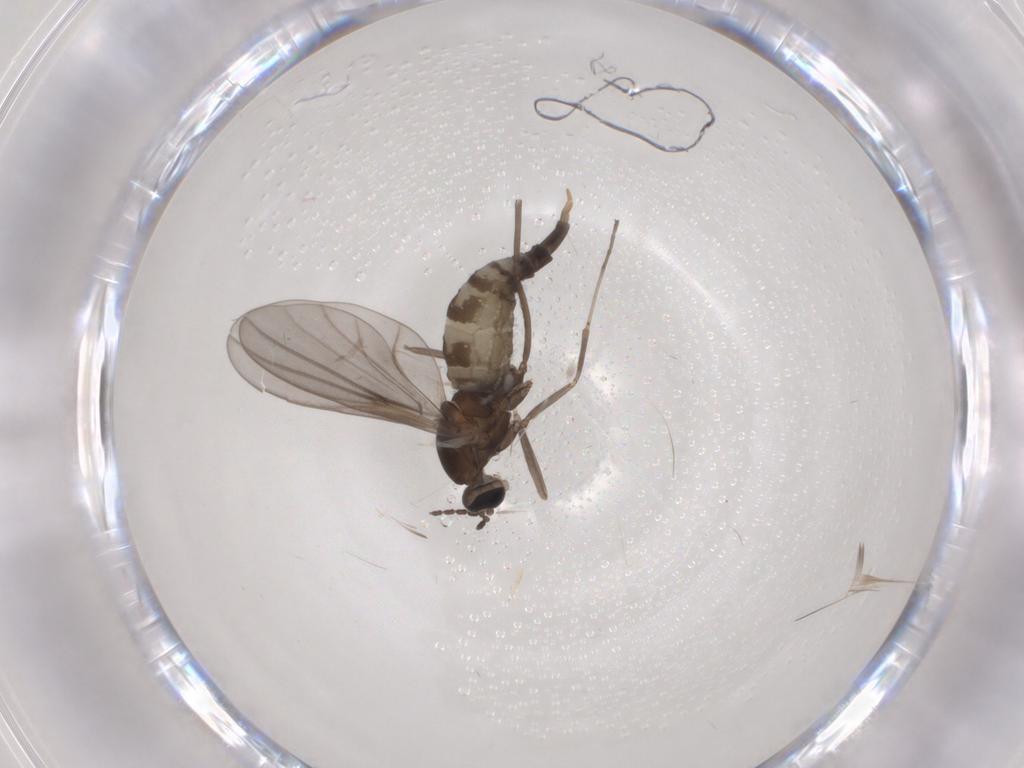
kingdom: Animalia
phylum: Arthropoda
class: Insecta
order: Diptera
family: Cecidomyiidae
